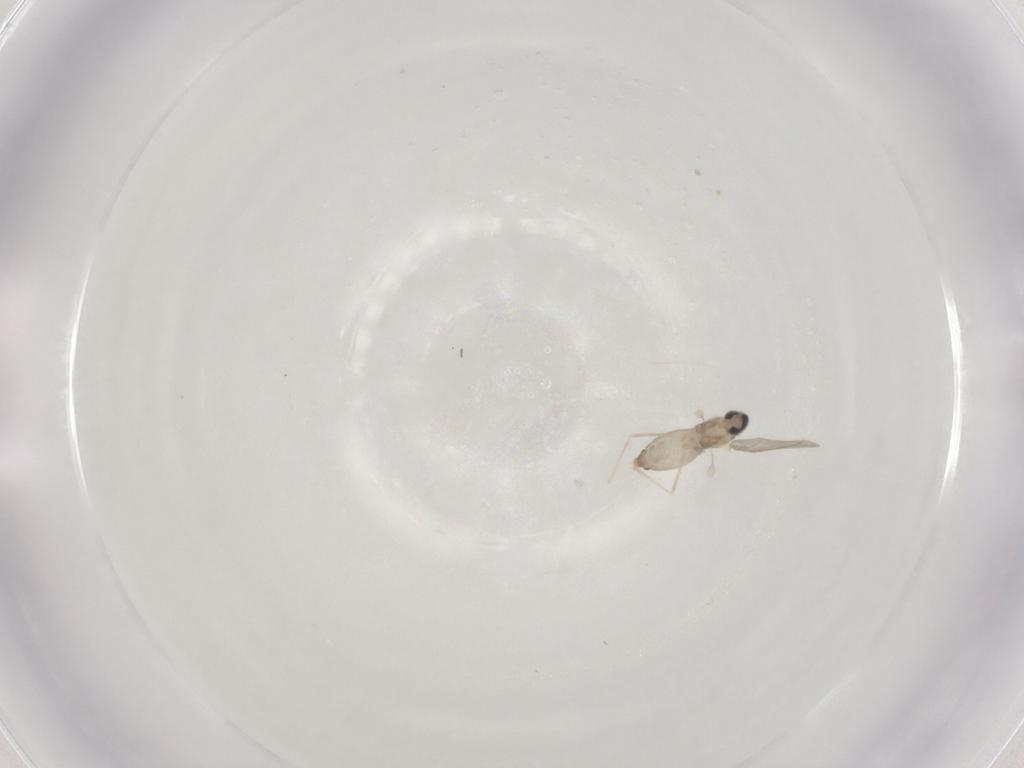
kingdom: Animalia
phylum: Arthropoda
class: Insecta
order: Diptera
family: Cecidomyiidae
